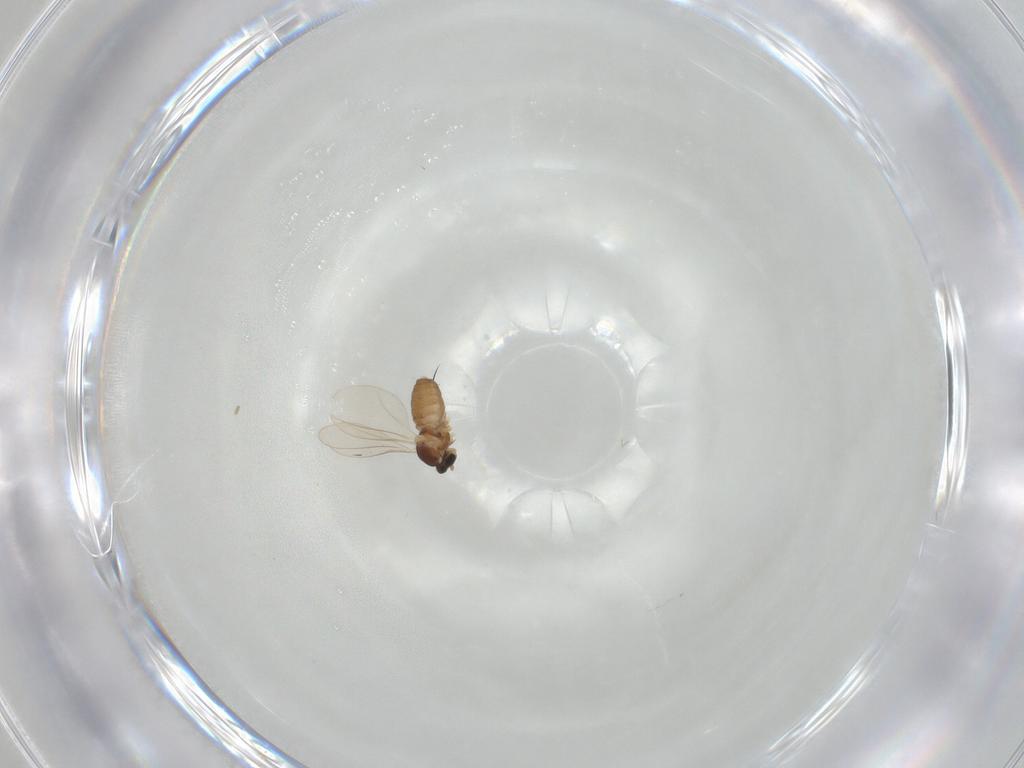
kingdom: Animalia
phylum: Arthropoda
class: Insecta
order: Diptera
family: Cecidomyiidae
